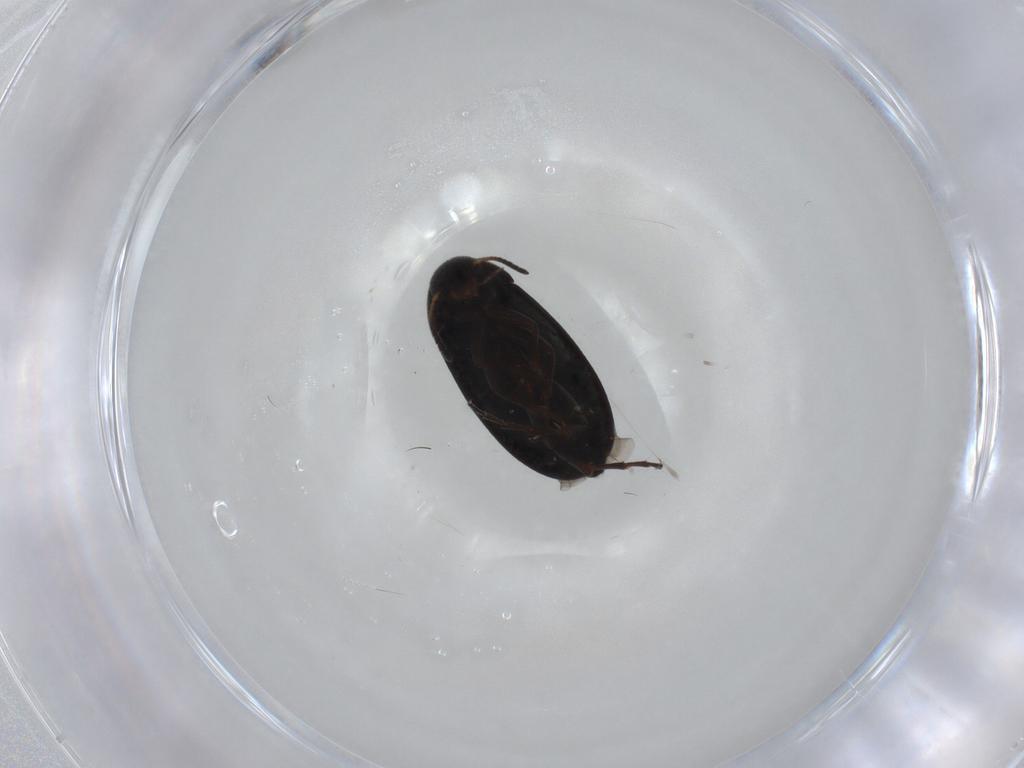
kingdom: Animalia
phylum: Arthropoda
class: Insecta
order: Coleoptera
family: Scraptiidae
